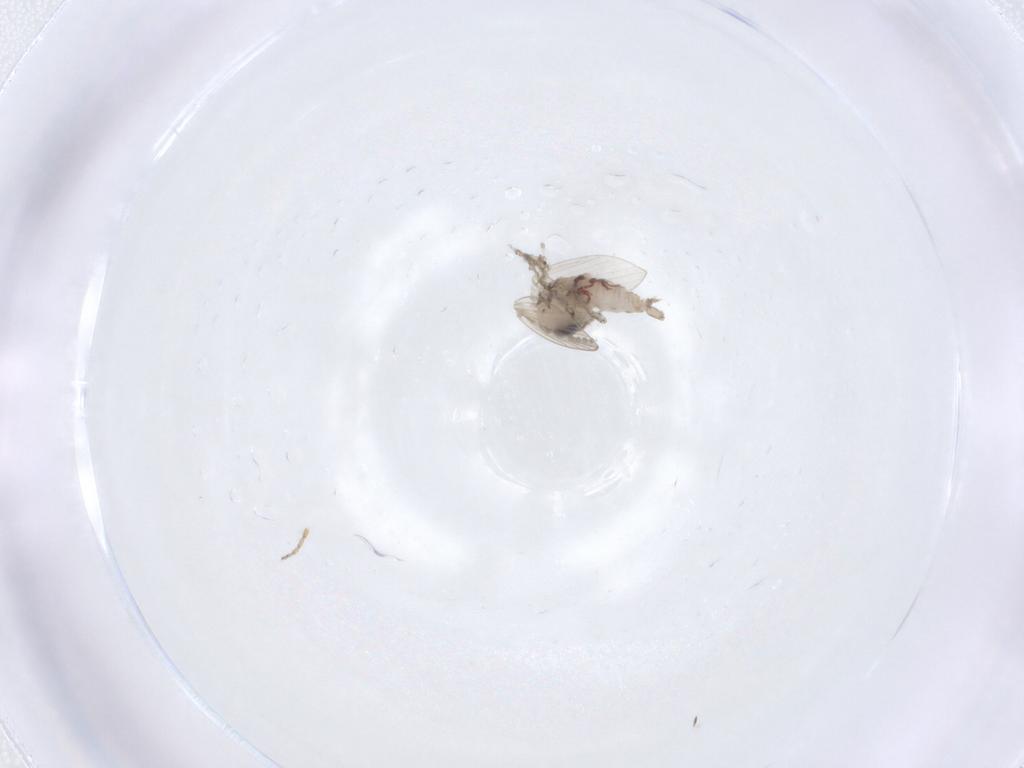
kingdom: Animalia
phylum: Arthropoda
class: Insecta
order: Diptera
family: Psychodidae
